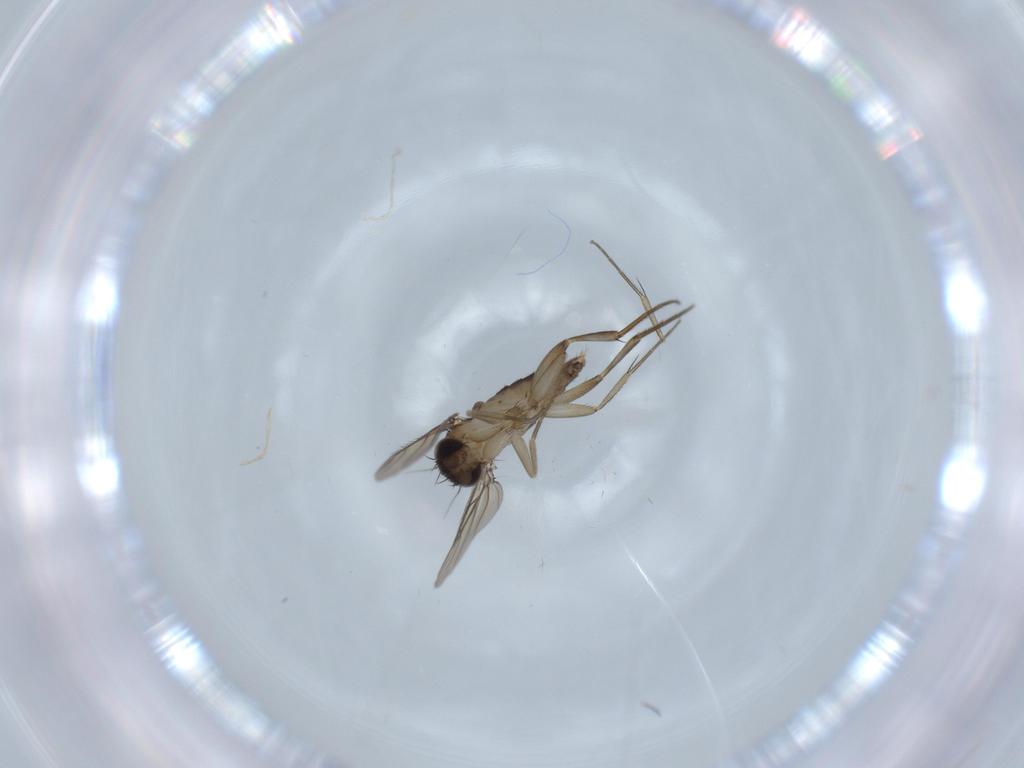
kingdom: Animalia
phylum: Arthropoda
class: Insecta
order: Diptera
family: Phoridae
